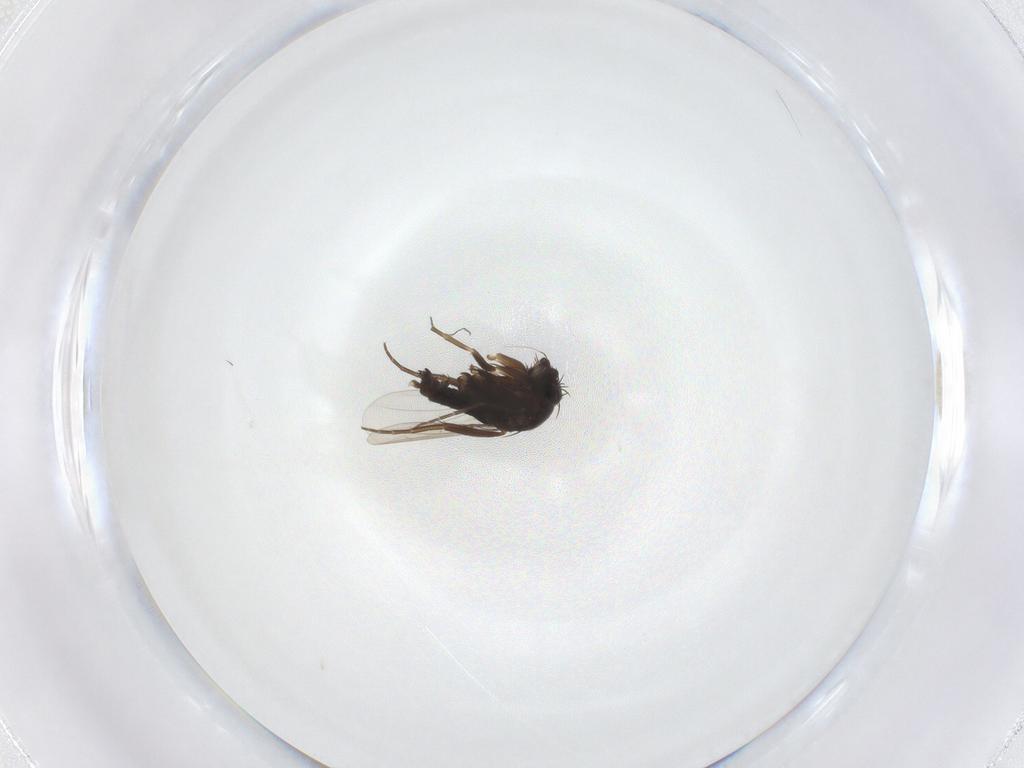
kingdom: Animalia
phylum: Arthropoda
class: Insecta
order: Diptera
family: Phoridae
